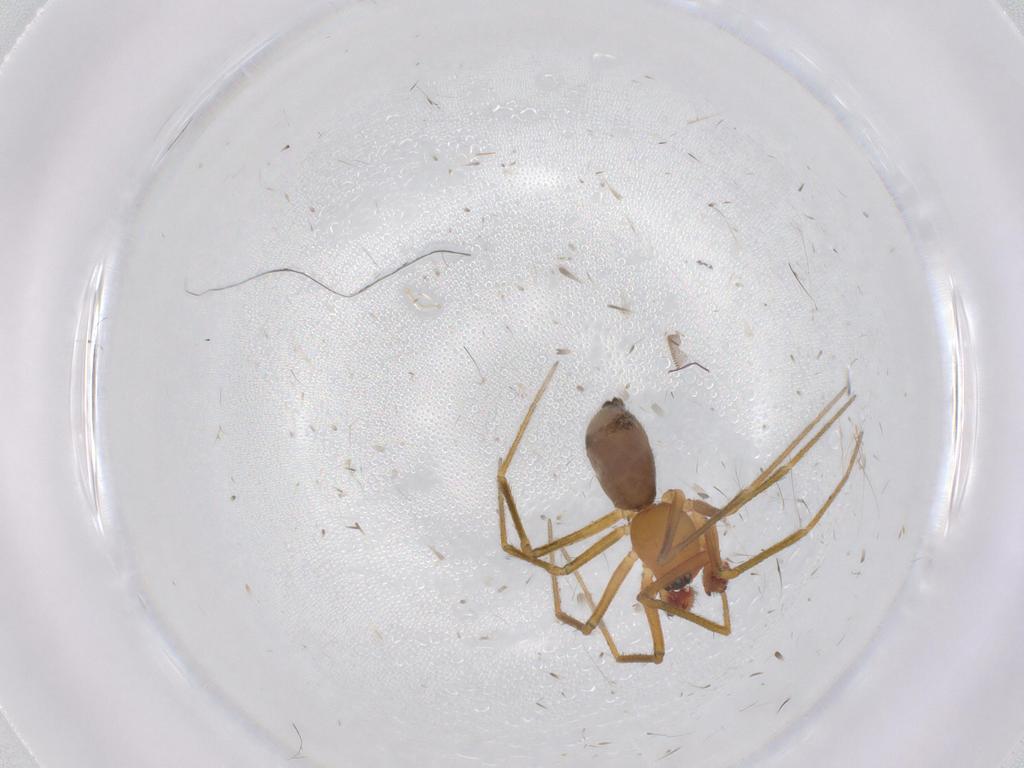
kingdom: Animalia
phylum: Arthropoda
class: Arachnida
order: Araneae
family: Linyphiidae
